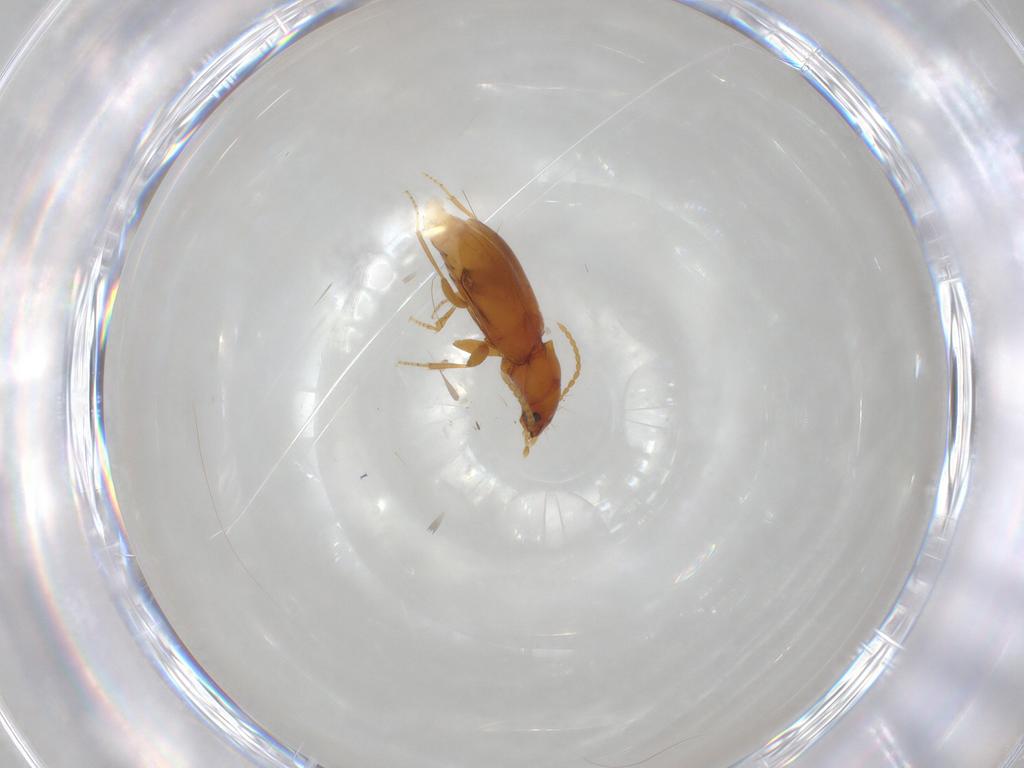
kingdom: Animalia
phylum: Arthropoda
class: Insecta
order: Coleoptera
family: Carabidae
